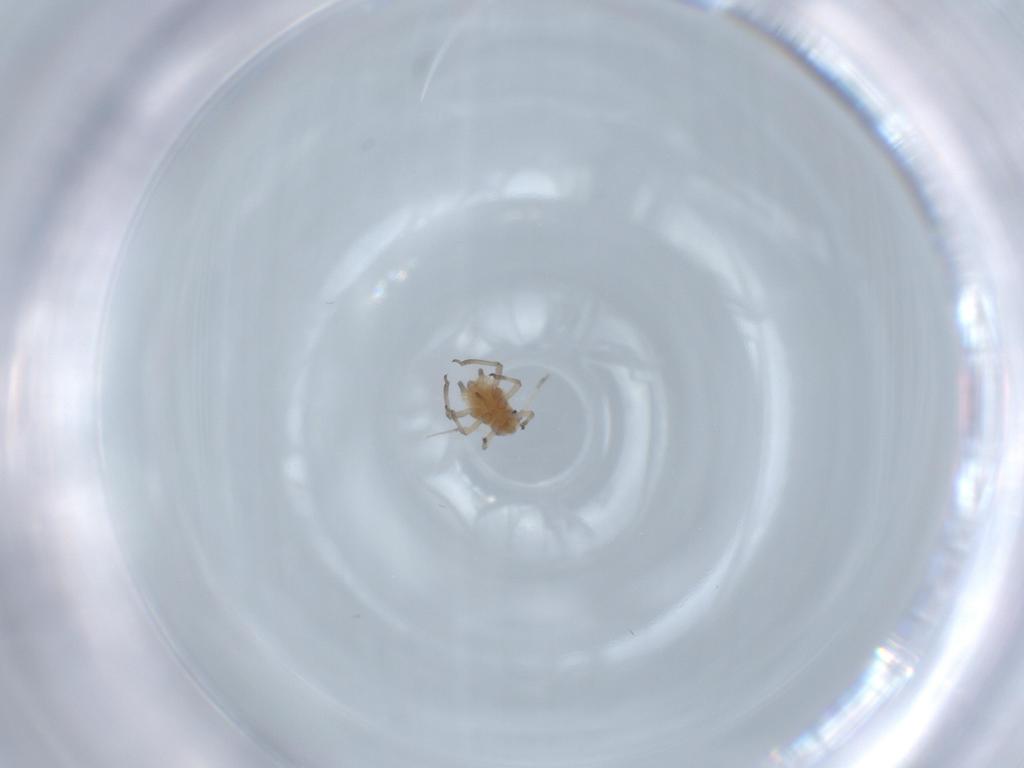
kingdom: Animalia
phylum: Arthropoda
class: Insecta
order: Hemiptera
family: Aphididae
